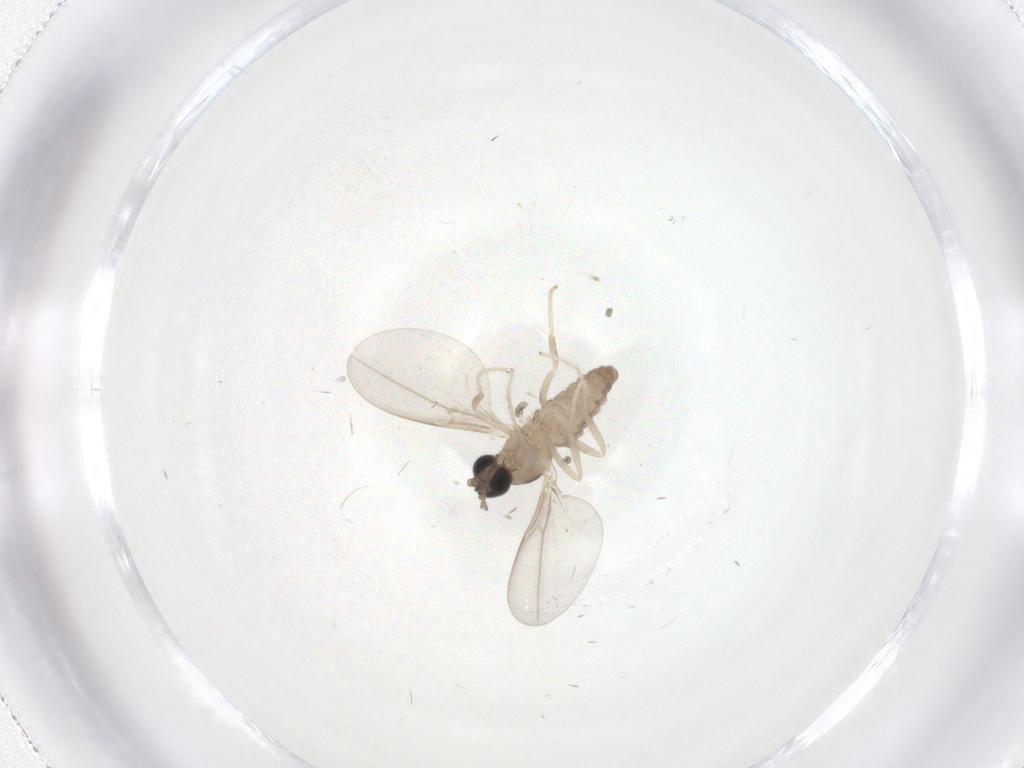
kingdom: Animalia
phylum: Arthropoda
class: Insecta
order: Diptera
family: Cecidomyiidae
